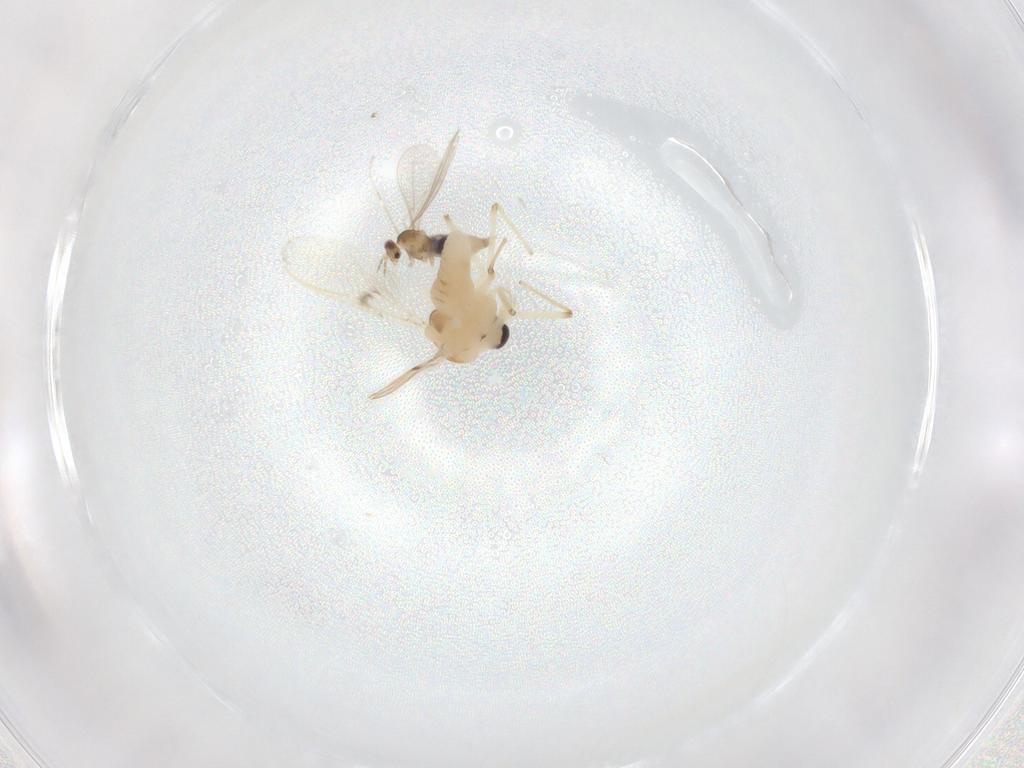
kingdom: Animalia
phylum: Arthropoda
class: Insecta
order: Diptera
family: Cecidomyiidae
